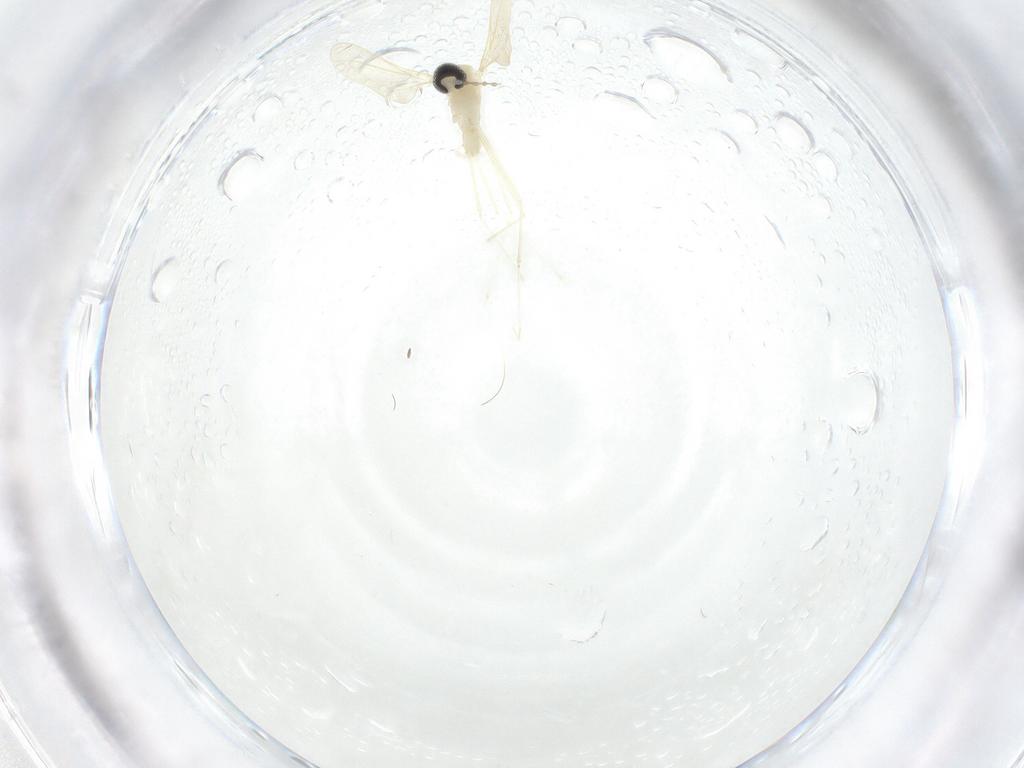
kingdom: Animalia
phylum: Arthropoda
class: Insecta
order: Diptera
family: Cecidomyiidae
